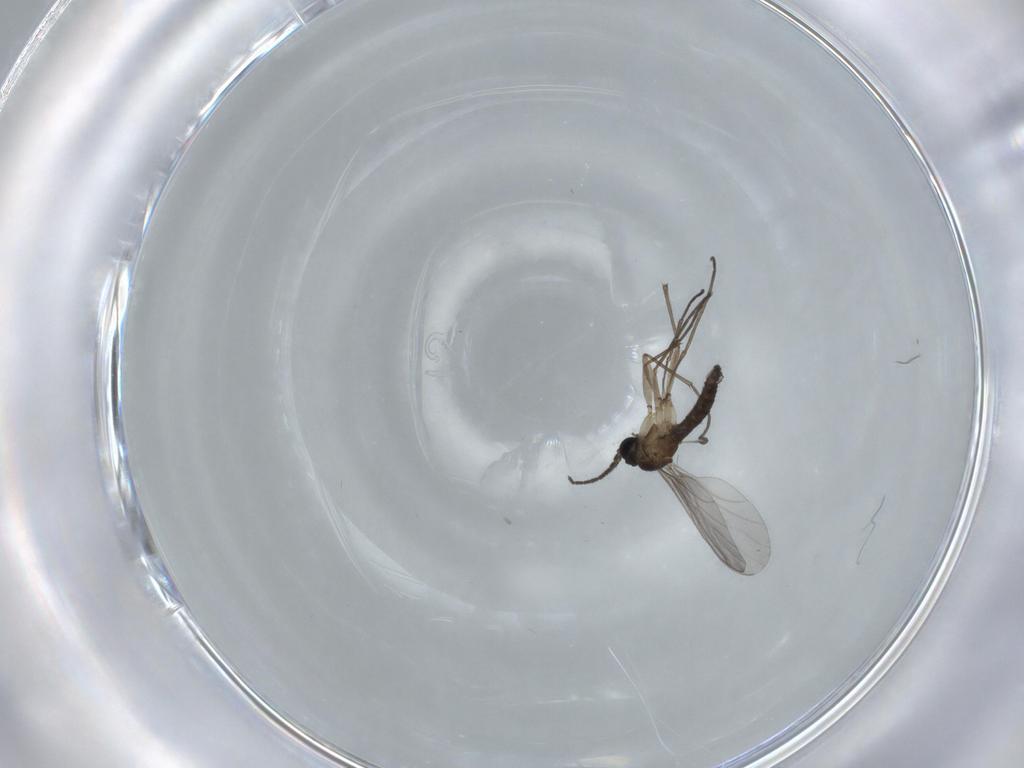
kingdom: Animalia
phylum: Arthropoda
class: Insecta
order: Diptera
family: Sciaridae
